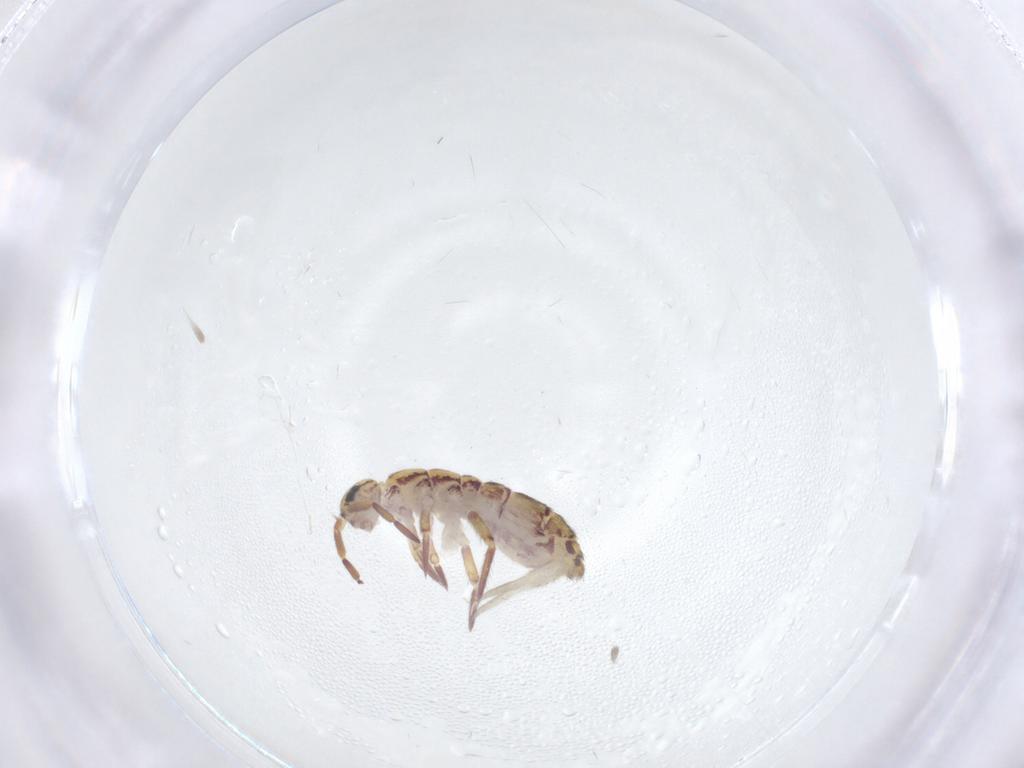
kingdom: Animalia
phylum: Arthropoda
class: Collembola
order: Entomobryomorpha
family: Isotomidae
